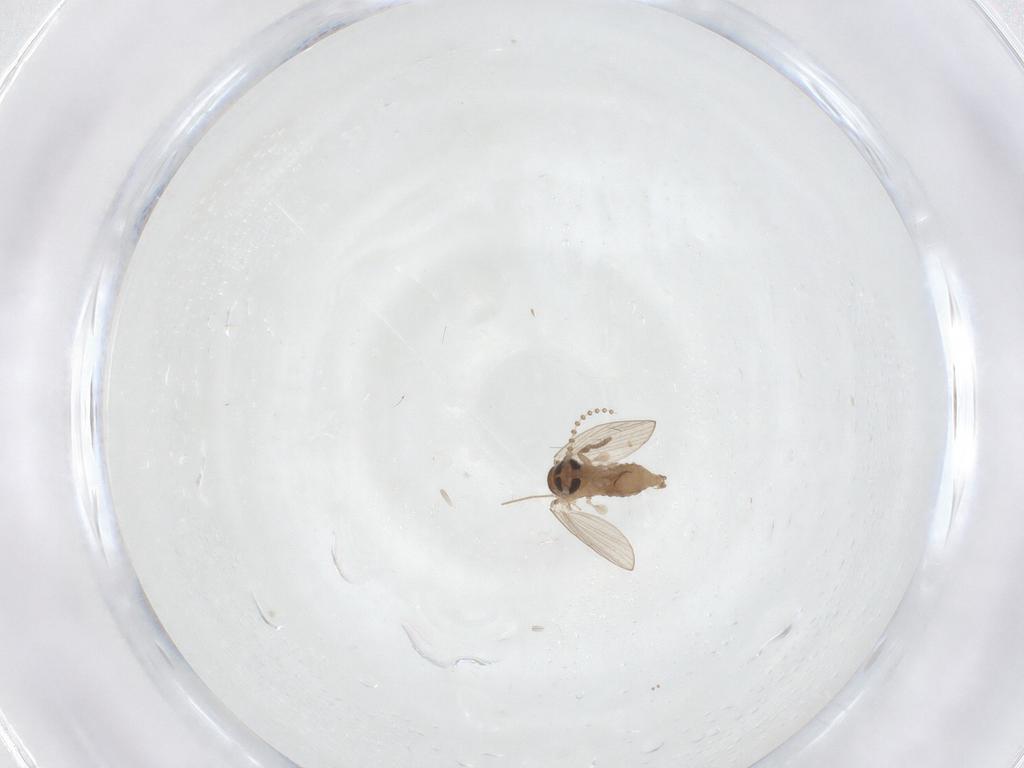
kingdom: Animalia
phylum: Arthropoda
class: Insecta
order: Diptera
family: Psychodidae
